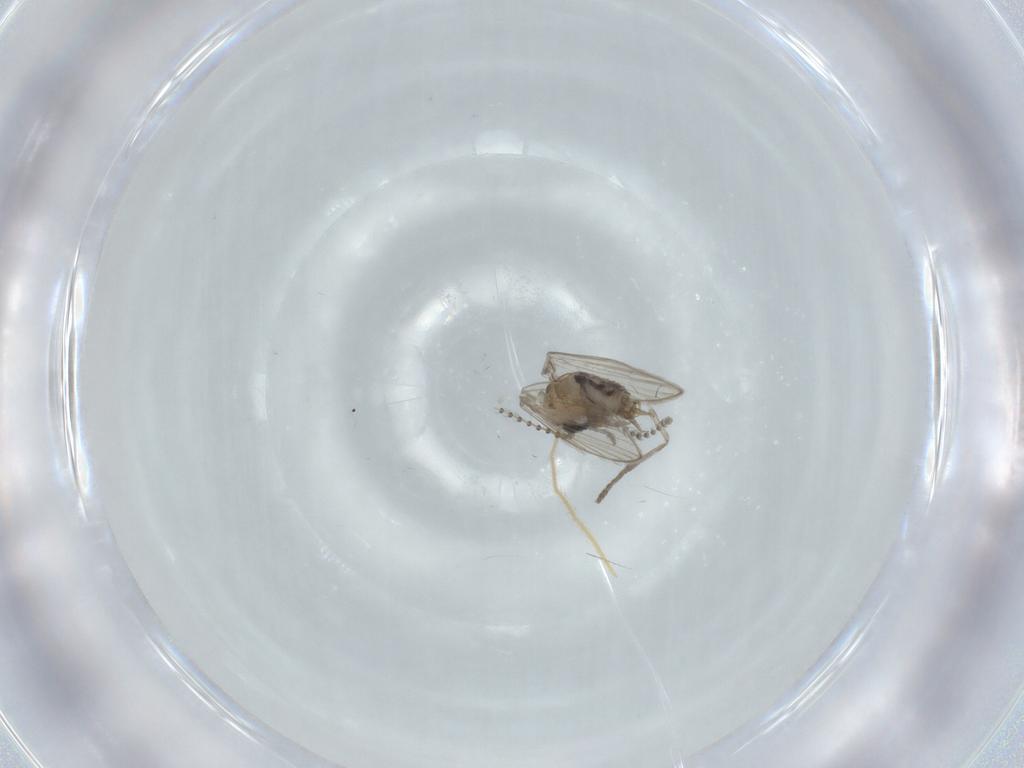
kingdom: Animalia
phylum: Arthropoda
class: Insecta
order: Diptera
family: Psychodidae
